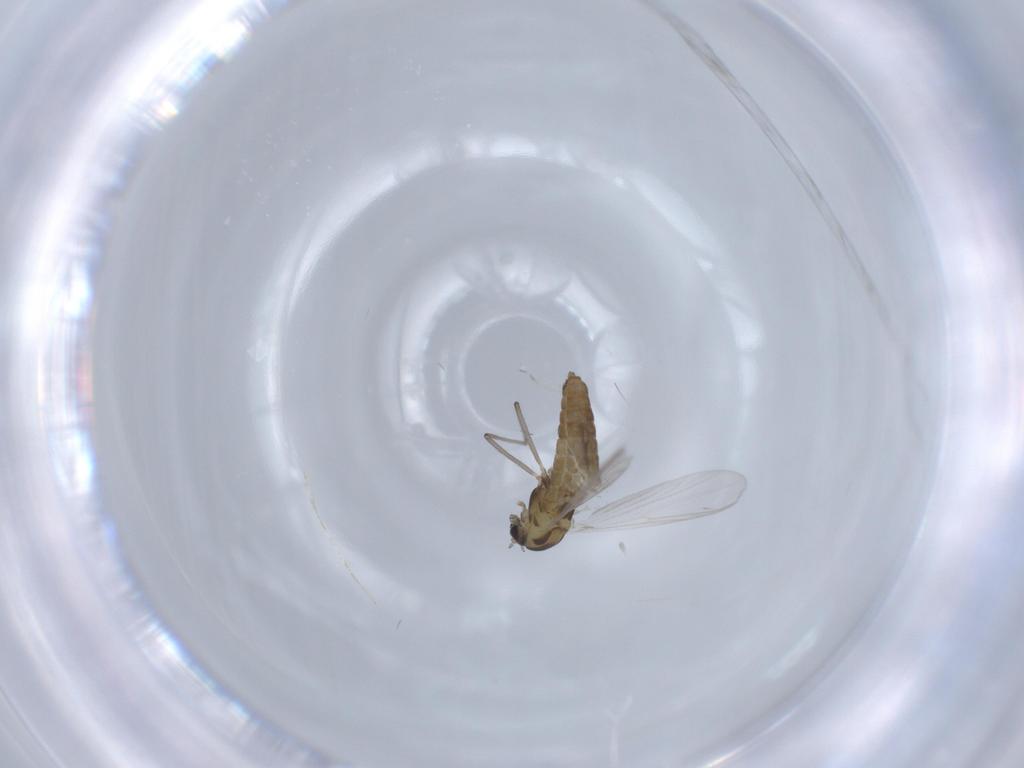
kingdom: Animalia
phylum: Arthropoda
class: Insecta
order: Diptera
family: Chironomidae
